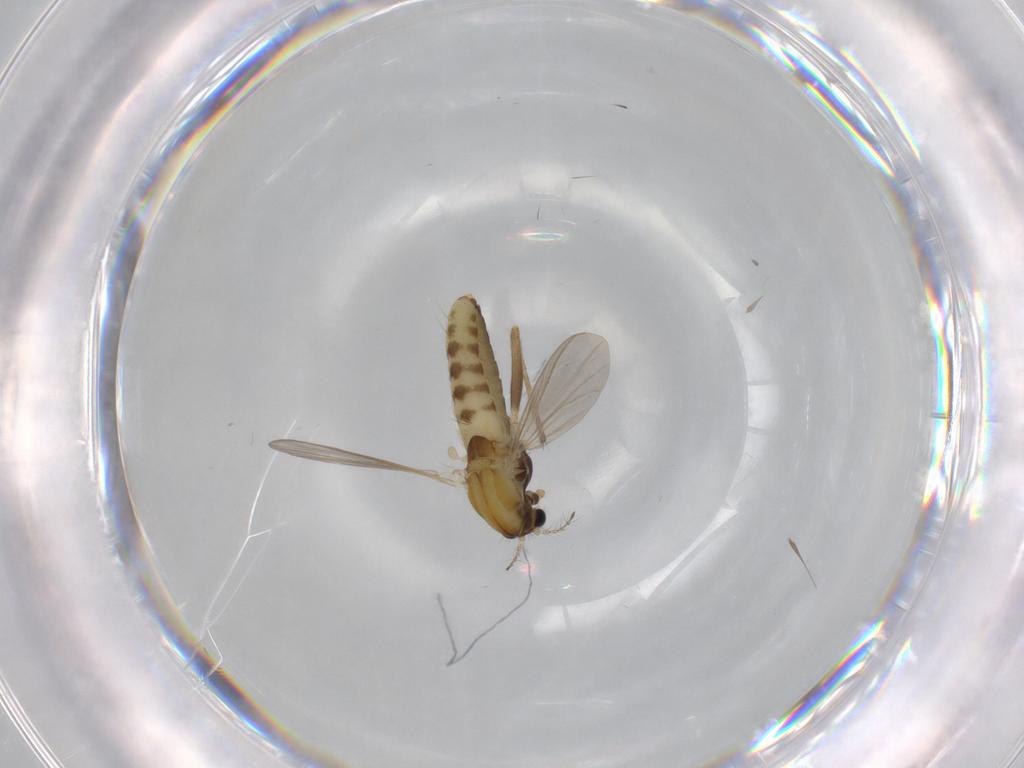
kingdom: Animalia
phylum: Arthropoda
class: Insecta
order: Diptera
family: Chironomidae
